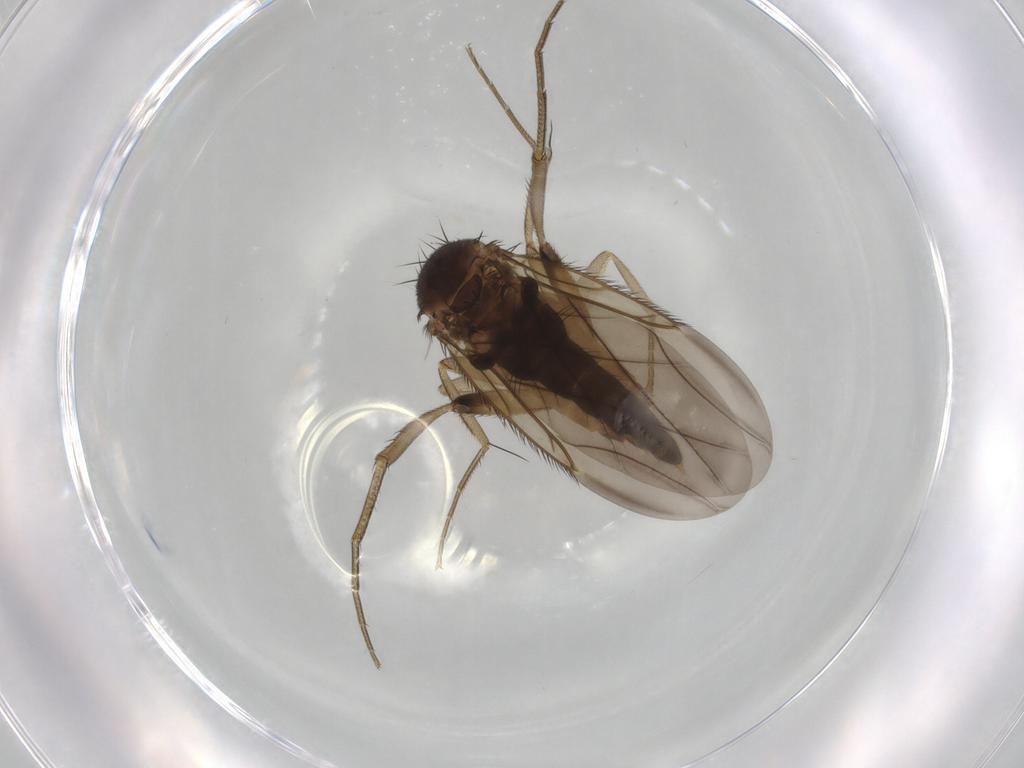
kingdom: Animalia
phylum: Arthropoda
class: Insecta
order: Diptera
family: Phoridae
